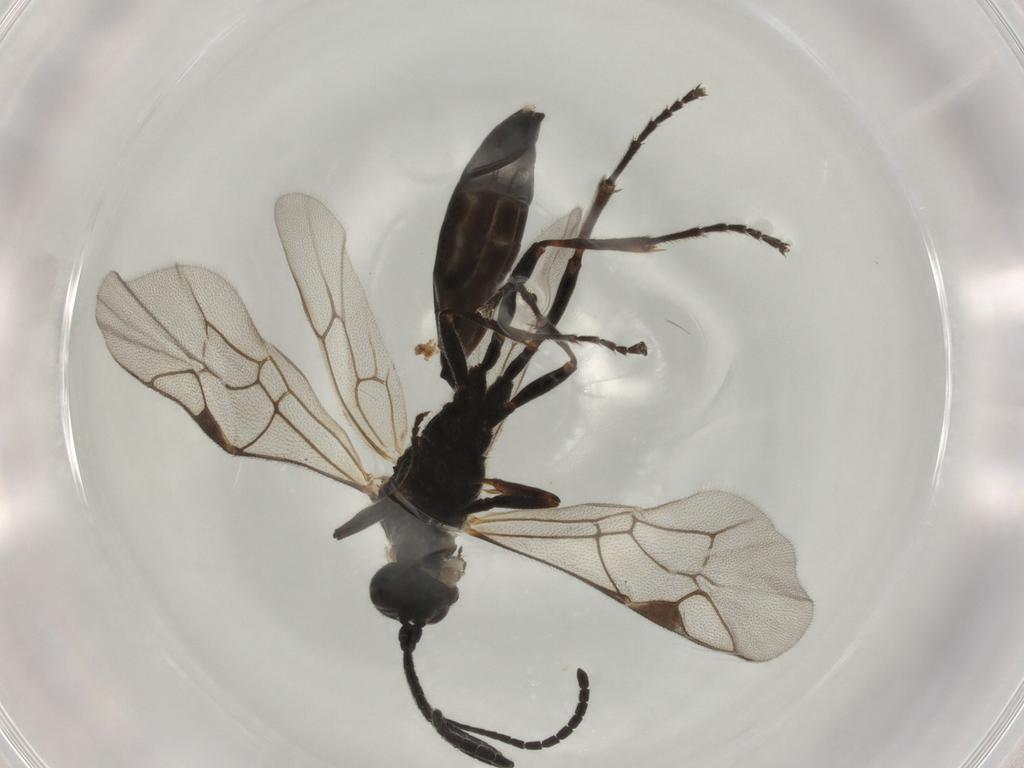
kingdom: Animalia
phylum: Arthropoda
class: Insecta
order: Hymenoptera
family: Ichneumonidae
